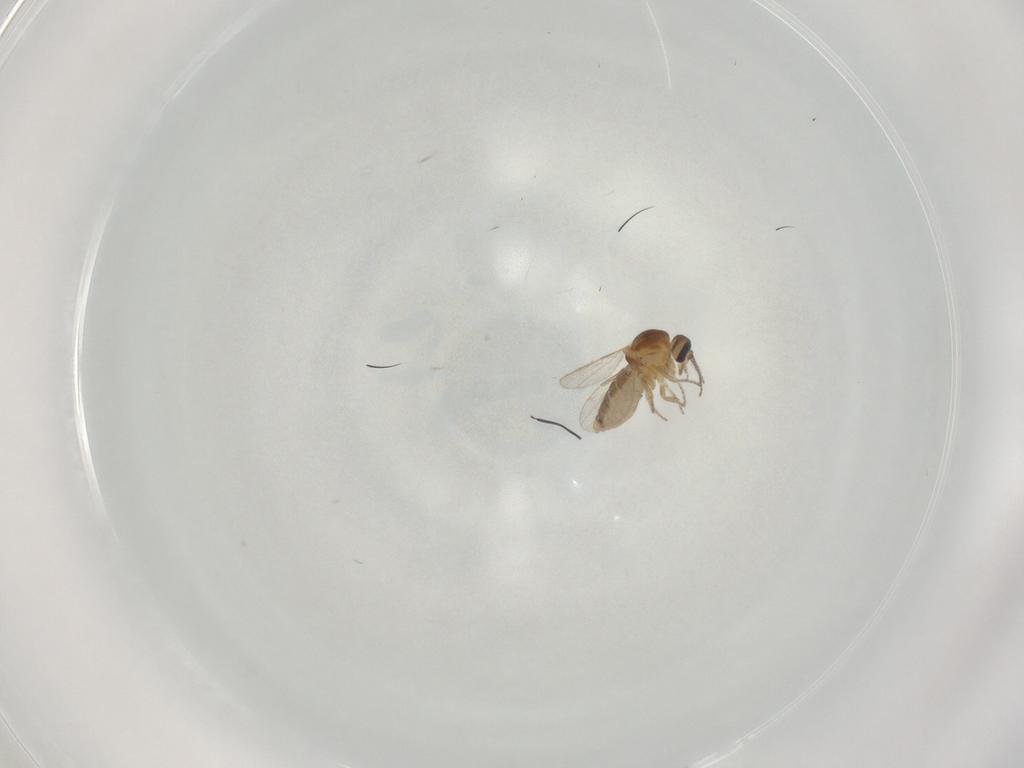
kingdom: Animalia
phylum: Arthropoda
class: Insecta
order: Diptera
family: Ceratopogonidae
